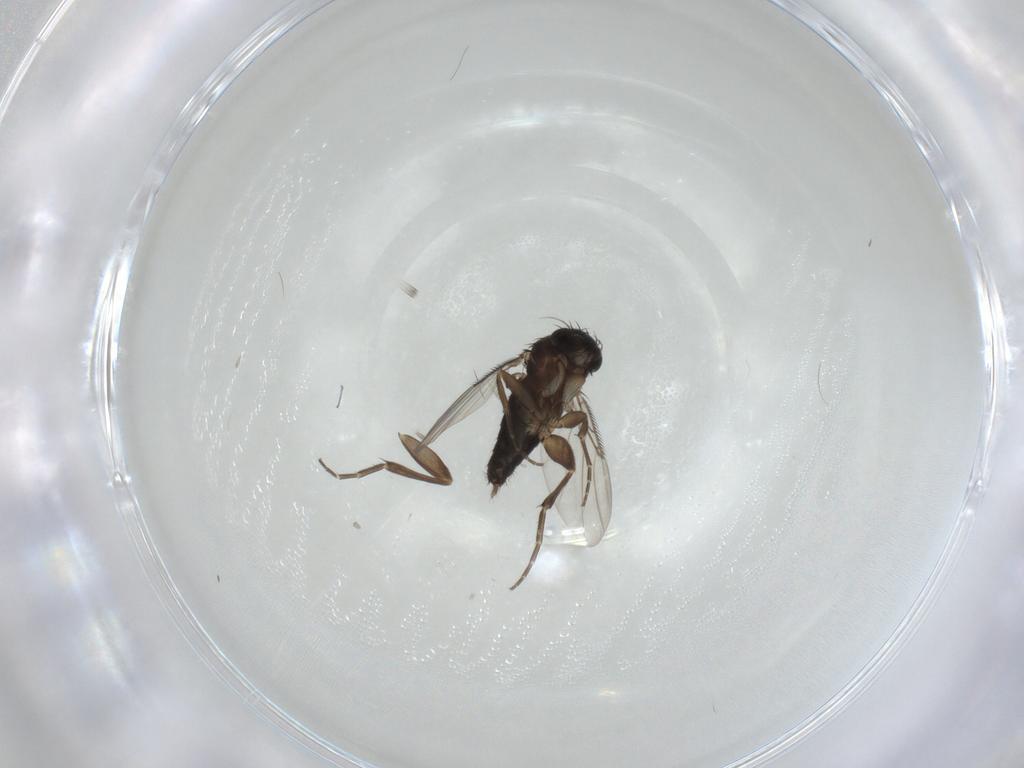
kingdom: Animalia
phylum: Arthropoda
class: Insecta
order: Diptera
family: Phoridae
